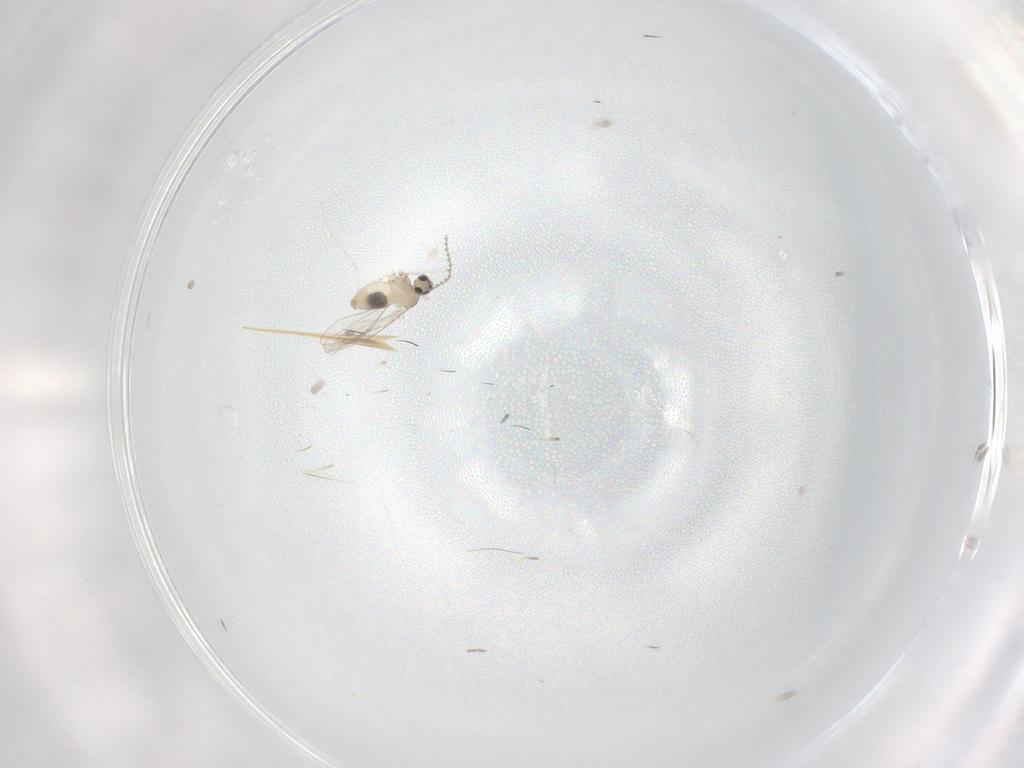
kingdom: Animalia
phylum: Arthropoda
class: Insecta
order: Diptera
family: Cecidomyiidae
